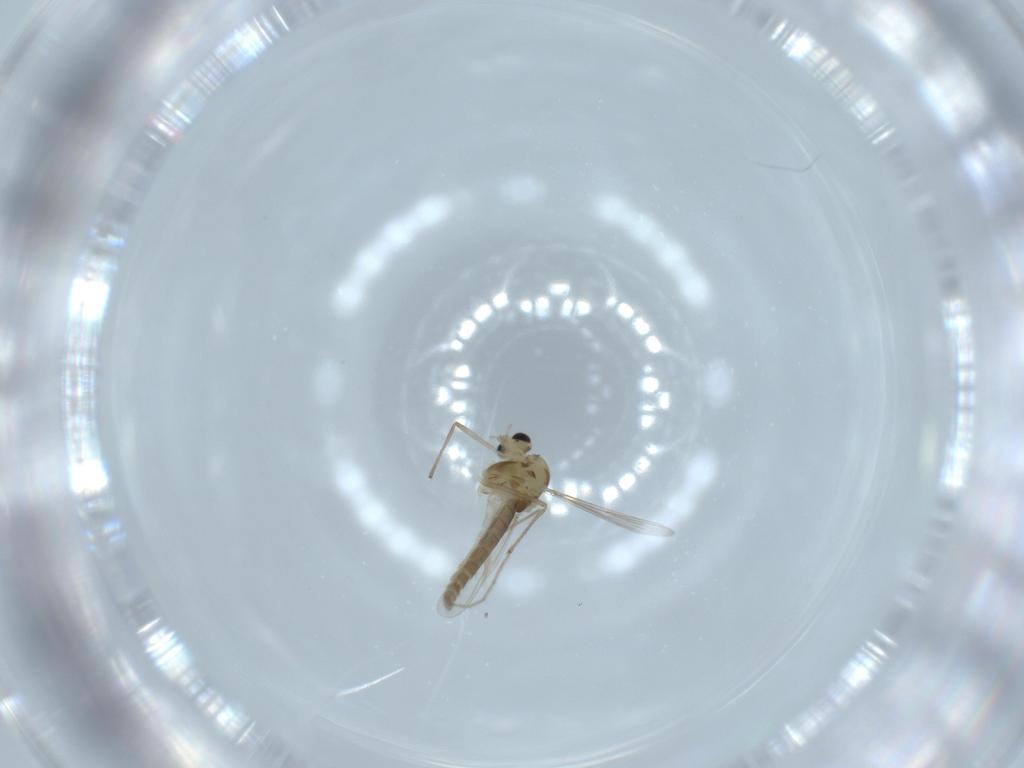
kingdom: Animalia
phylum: Arthropoda
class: Insecta
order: Diptera
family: Chironomidae
